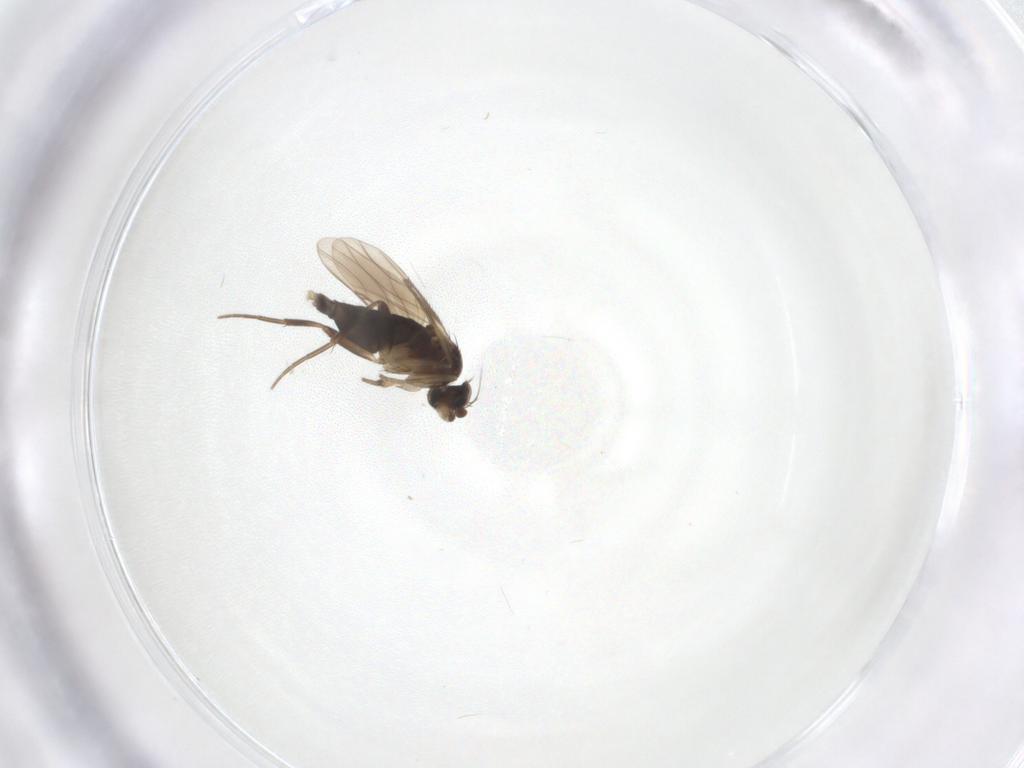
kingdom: Animalia
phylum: Arthropoda
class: Insecta
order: Diptera
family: Phoridae
